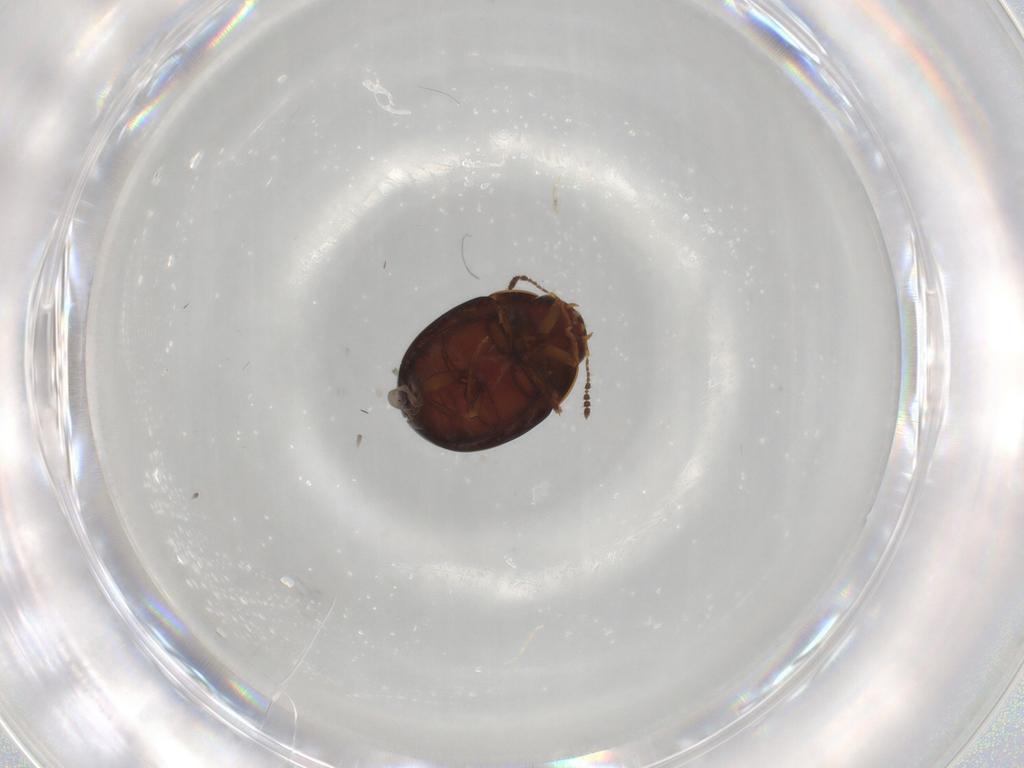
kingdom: Animalia
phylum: Arthropoda
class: Insecta
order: Coleoptera
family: Leiodidae
